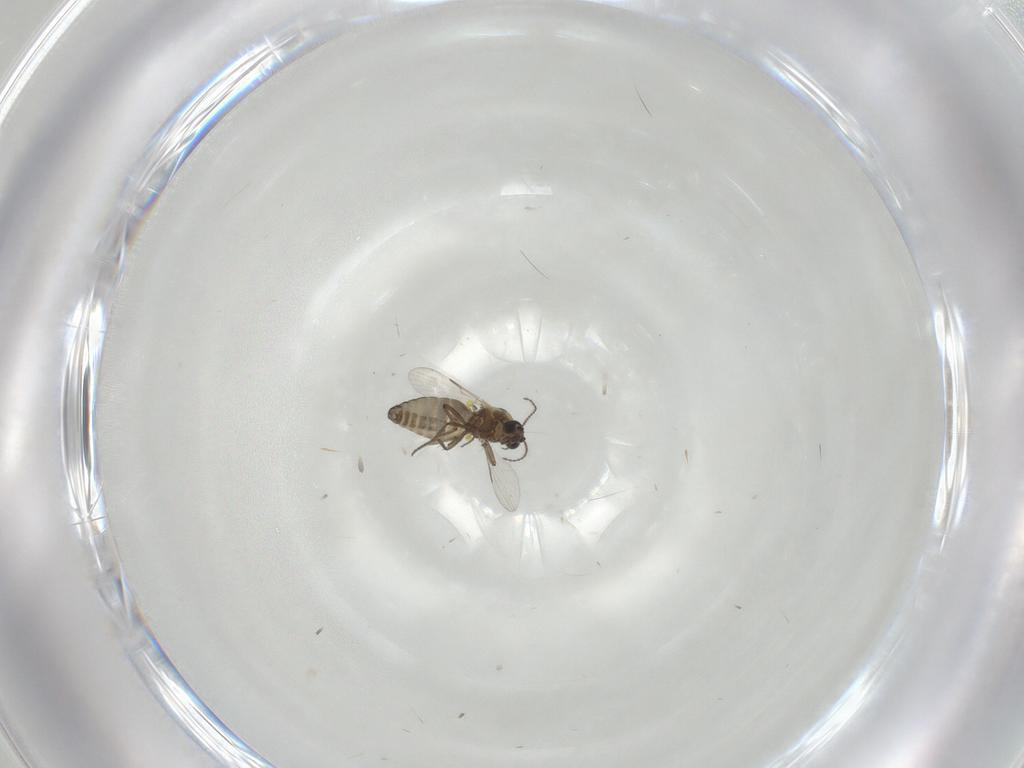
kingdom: Animalia
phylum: Arthropoda
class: Insecta
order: Diptera
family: Ceratopogonidae
